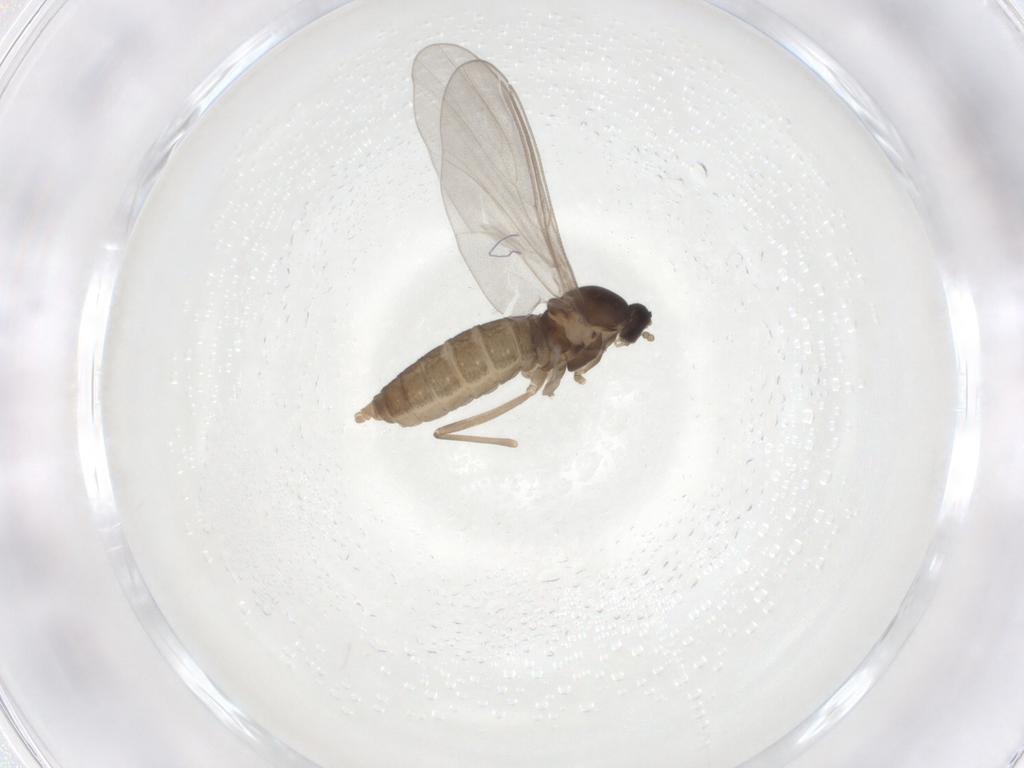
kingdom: Animalia
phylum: Arthropoda
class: Insecta
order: Diptera
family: Cecidomyiidae
